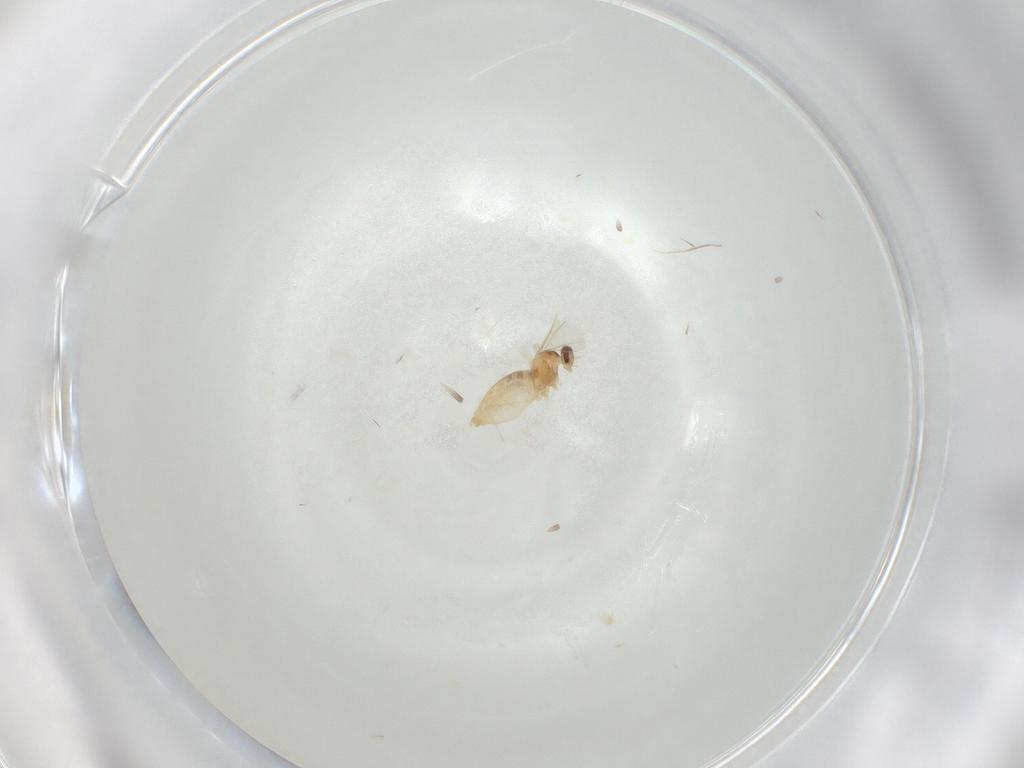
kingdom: Animalia
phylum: Arthropoda
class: Insecta
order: Diptera
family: Cecidomyiidae
